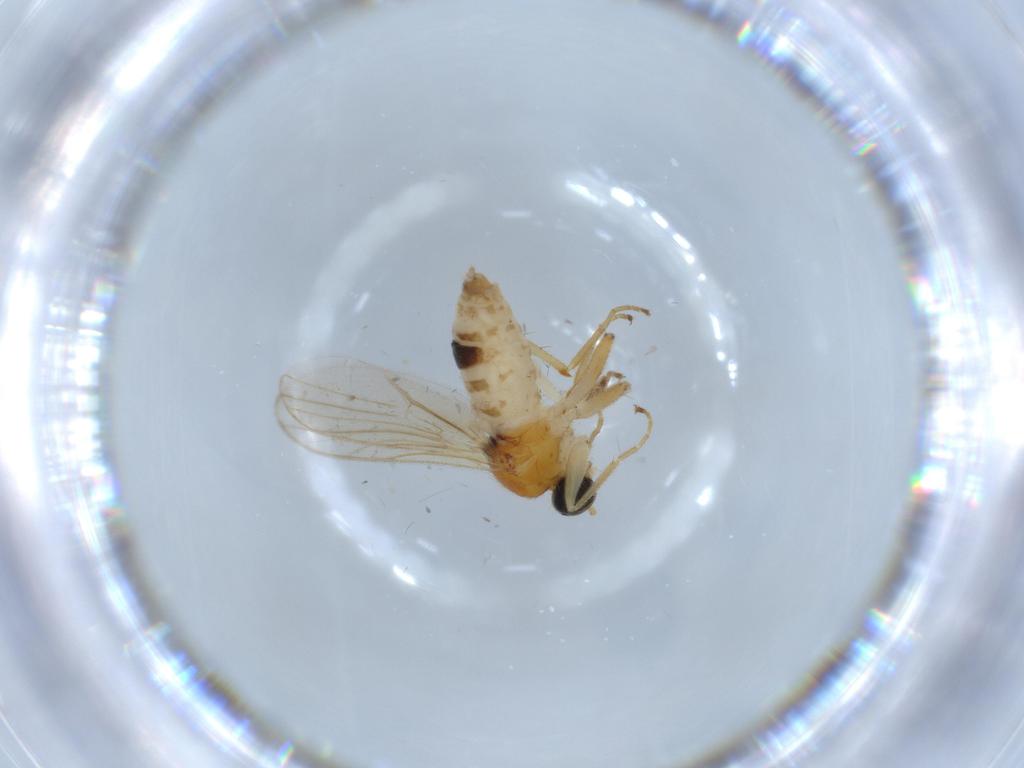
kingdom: Animalia
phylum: Arthropoda
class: Insecta
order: Diptera
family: Hybotidae
